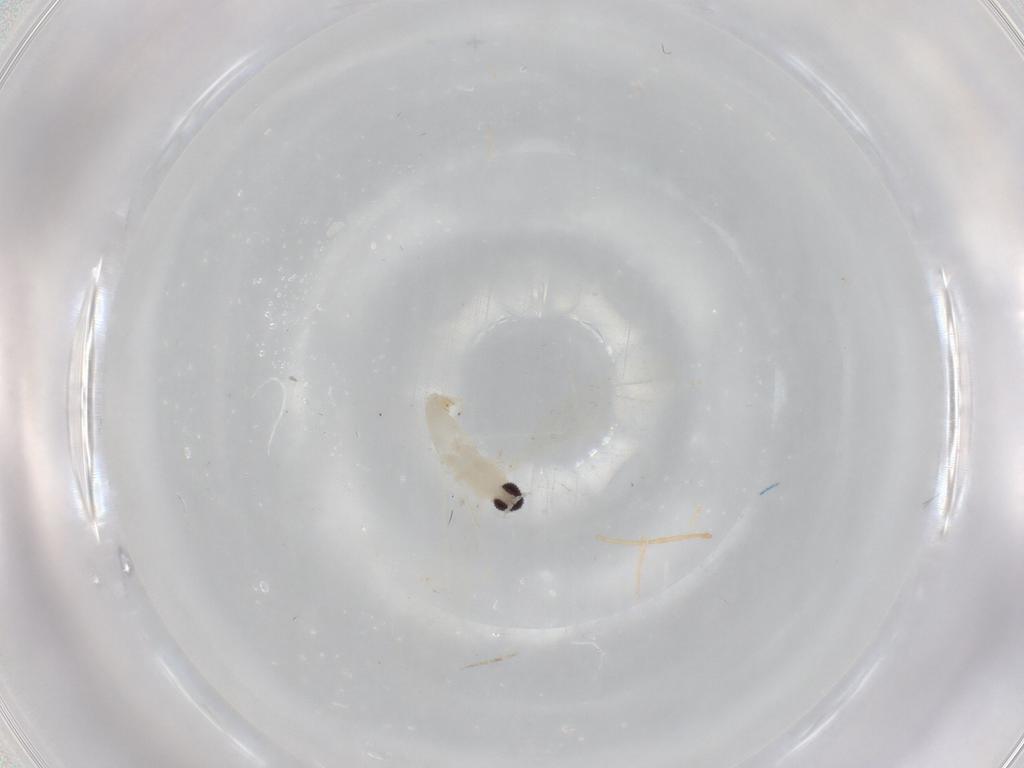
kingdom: Animalia
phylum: Arthropoda
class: Insecta
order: Diptera
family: Cecidomyiidae
